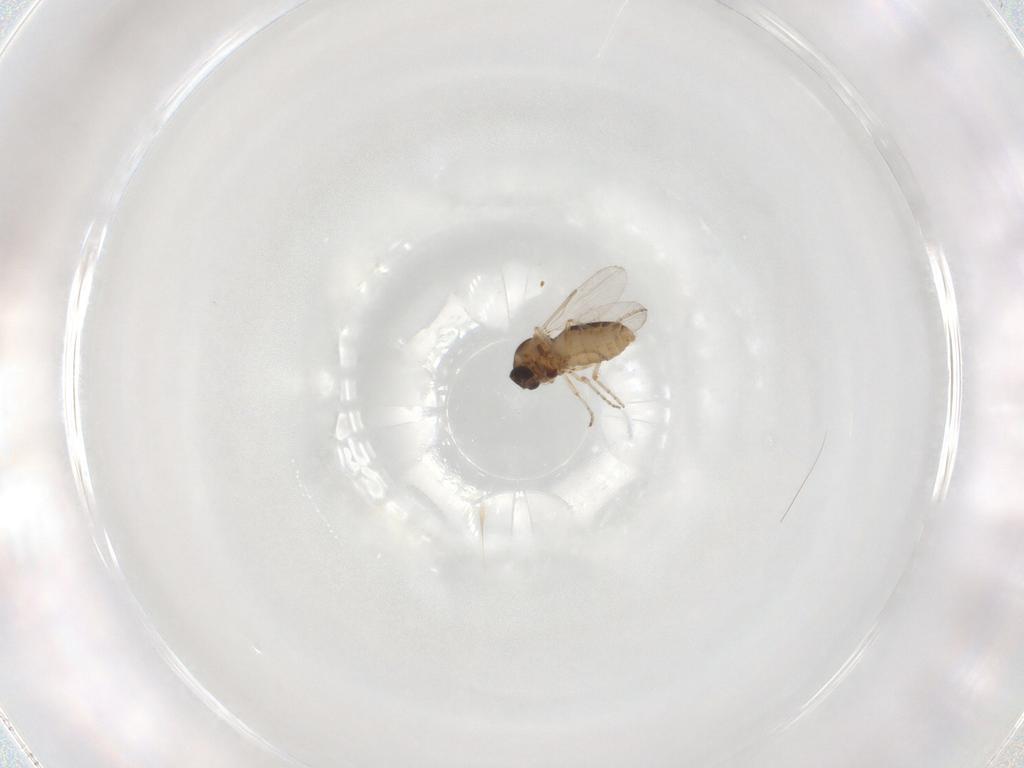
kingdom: Animalia
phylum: Arthropoda
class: Insecta
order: Diptera
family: Ceratopogonidae
